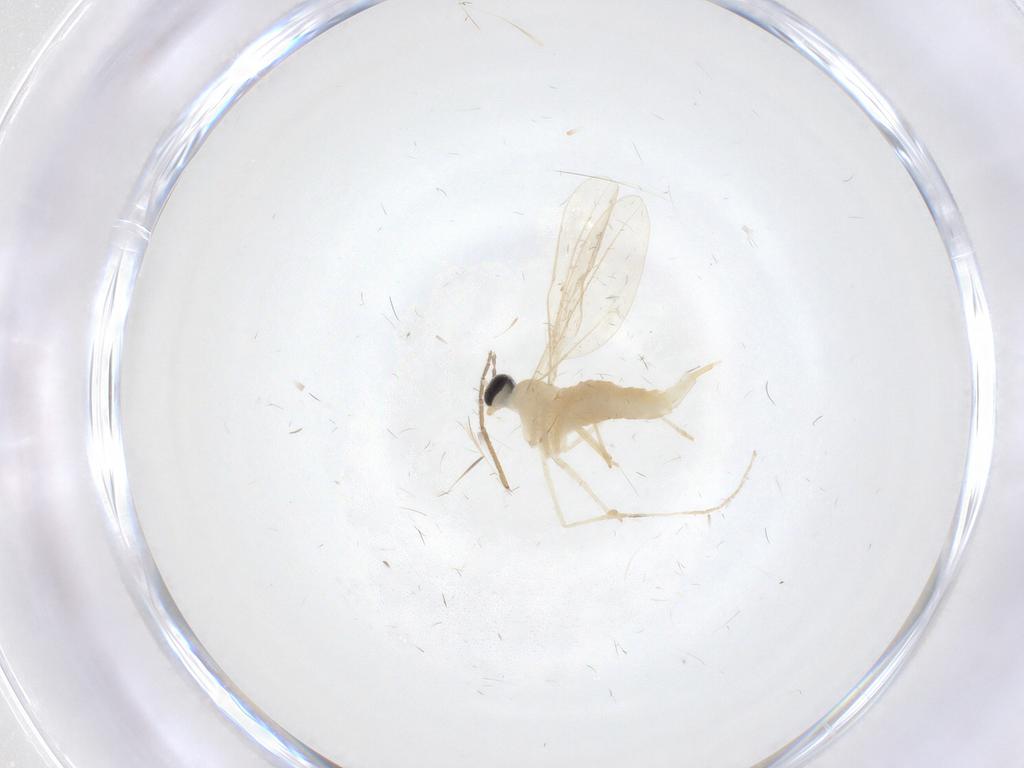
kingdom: Animalia
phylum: Arthropoda
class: Insecta
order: Diptera
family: Cecidomyiidae
